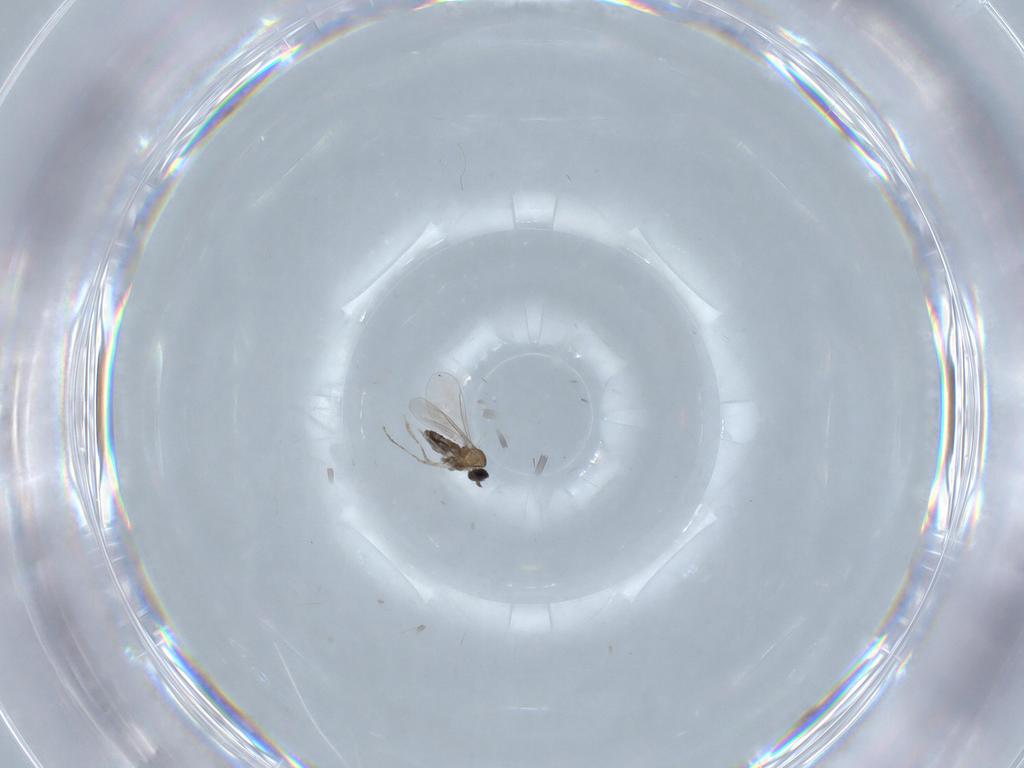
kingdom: Animalia
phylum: Arthropoda
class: Insecta
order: Diptera
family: Cecidomyiidae
